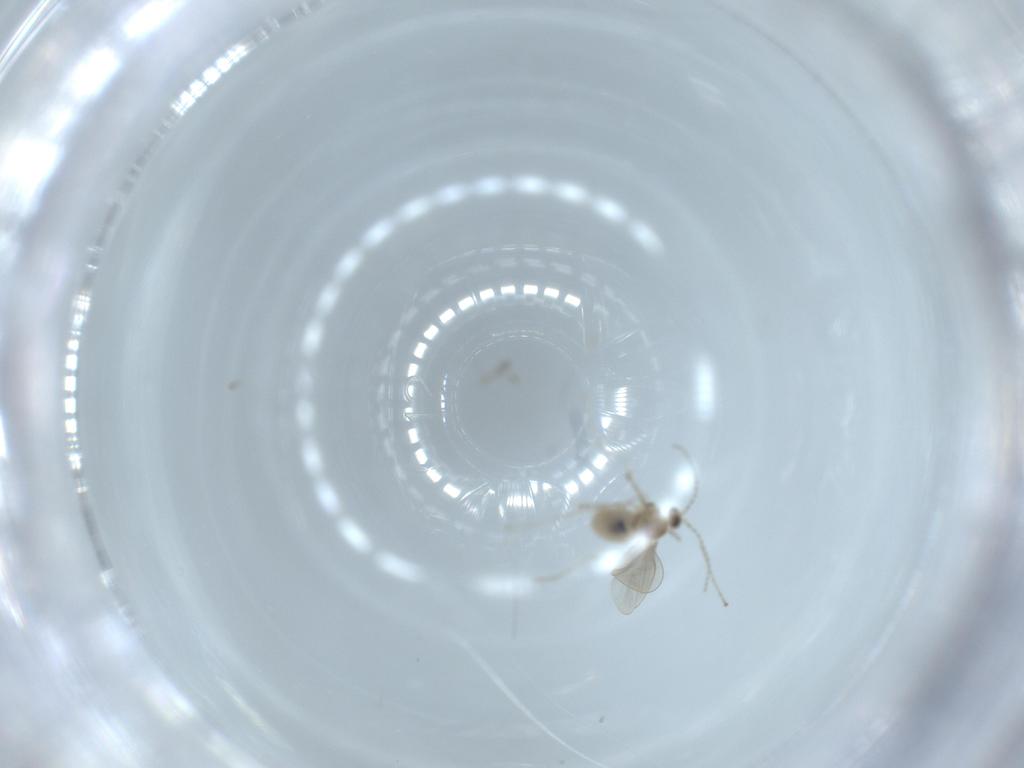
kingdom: Animalia
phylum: Arthropoda
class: Insecta
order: Diptera
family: Cecidomyiidae
